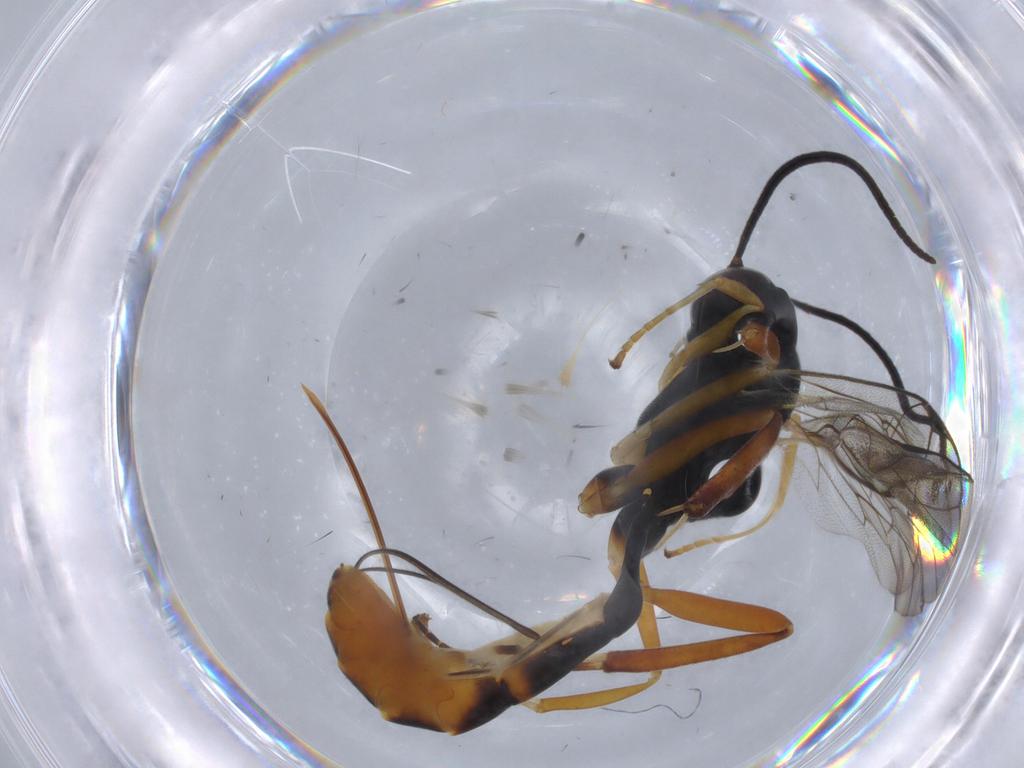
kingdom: Animalia
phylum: Arthropoda
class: Insecta
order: Hymenoptera
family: Ichneumonidae
